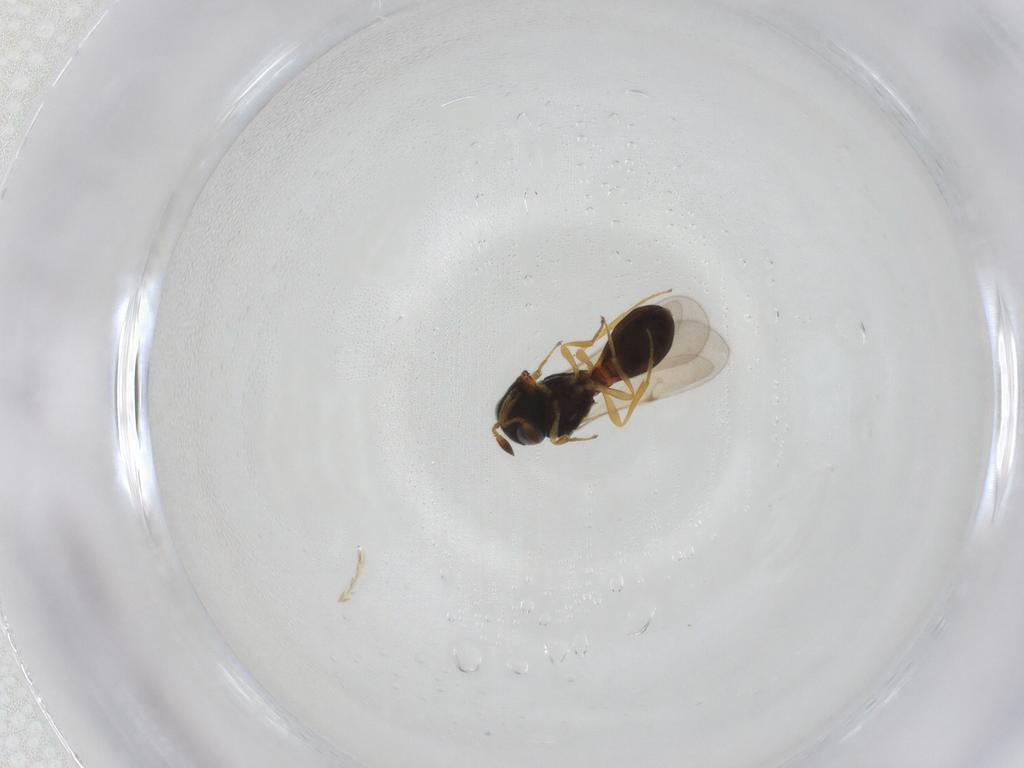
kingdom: Animalia
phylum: Arthropoda
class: Insecta
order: Hymenoptera
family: Scelionidae
